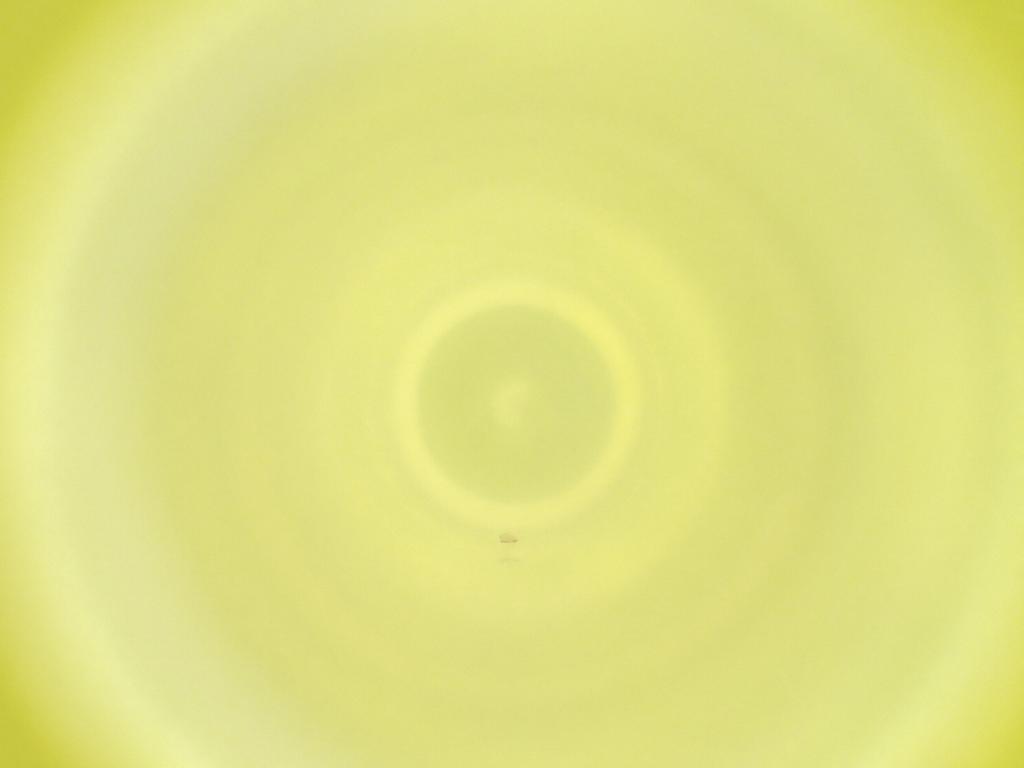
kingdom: Animalia
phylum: Arthropoda
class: Insecta
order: Diptera
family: Cecidomyiidae
